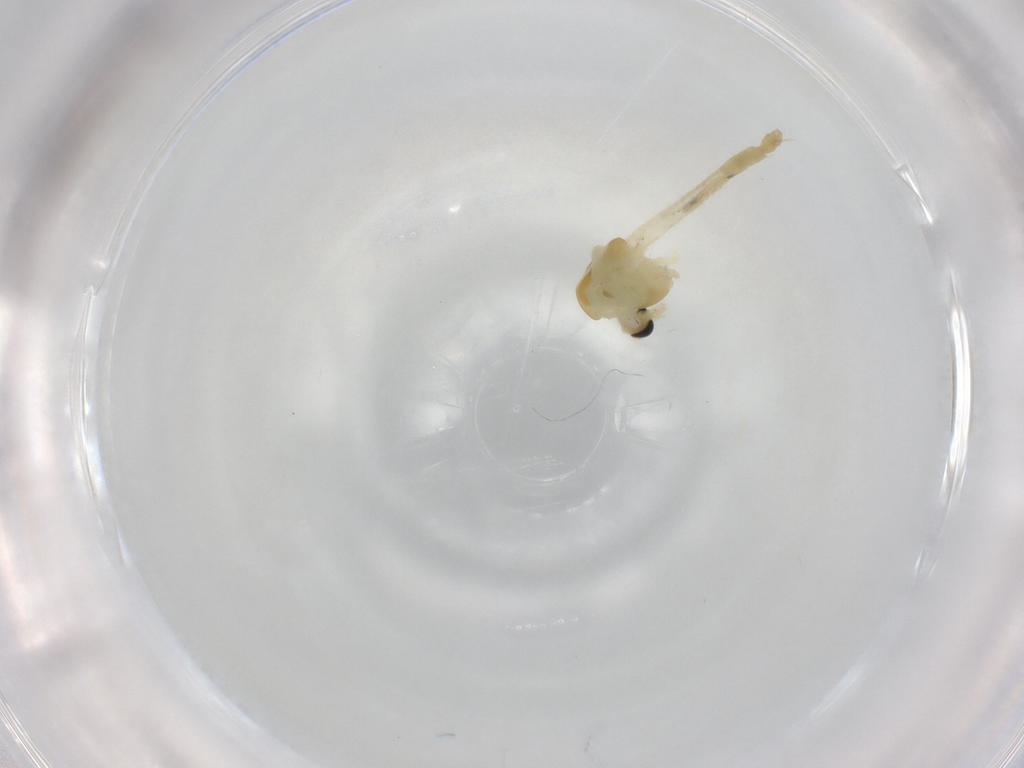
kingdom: Animalia
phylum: Arthropoda
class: Insecta
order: Diptera
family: Chironomidae
